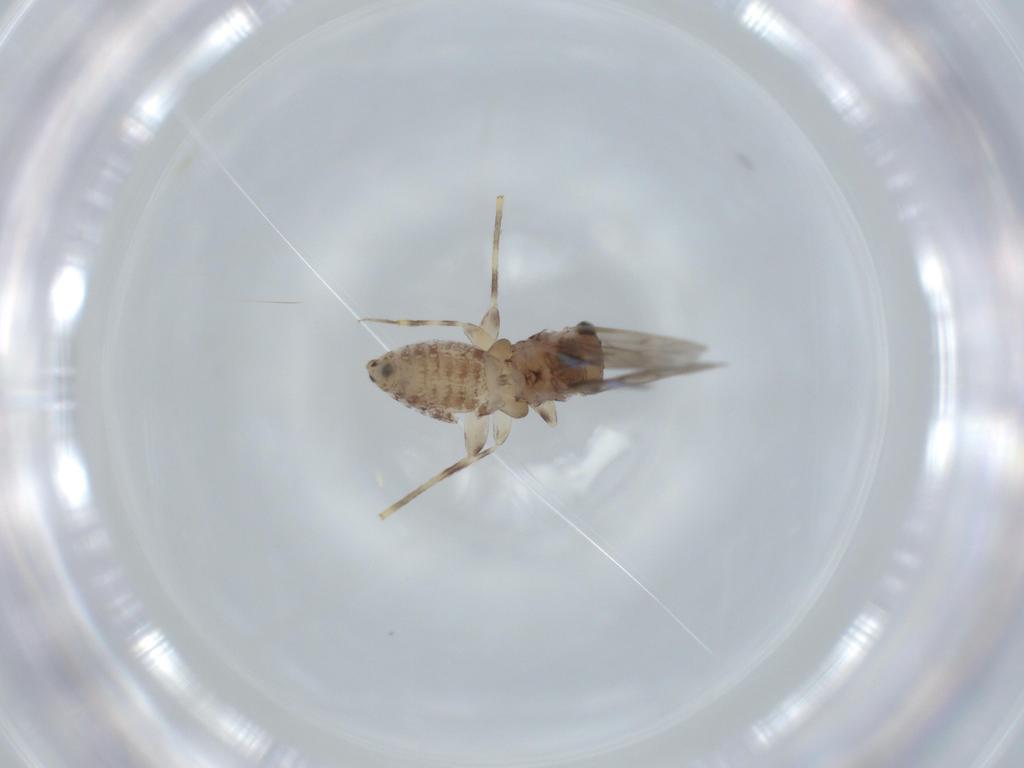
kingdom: Animalia
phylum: Arthropoda
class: Insecta
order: Psocodea
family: Lepidopsocidae
